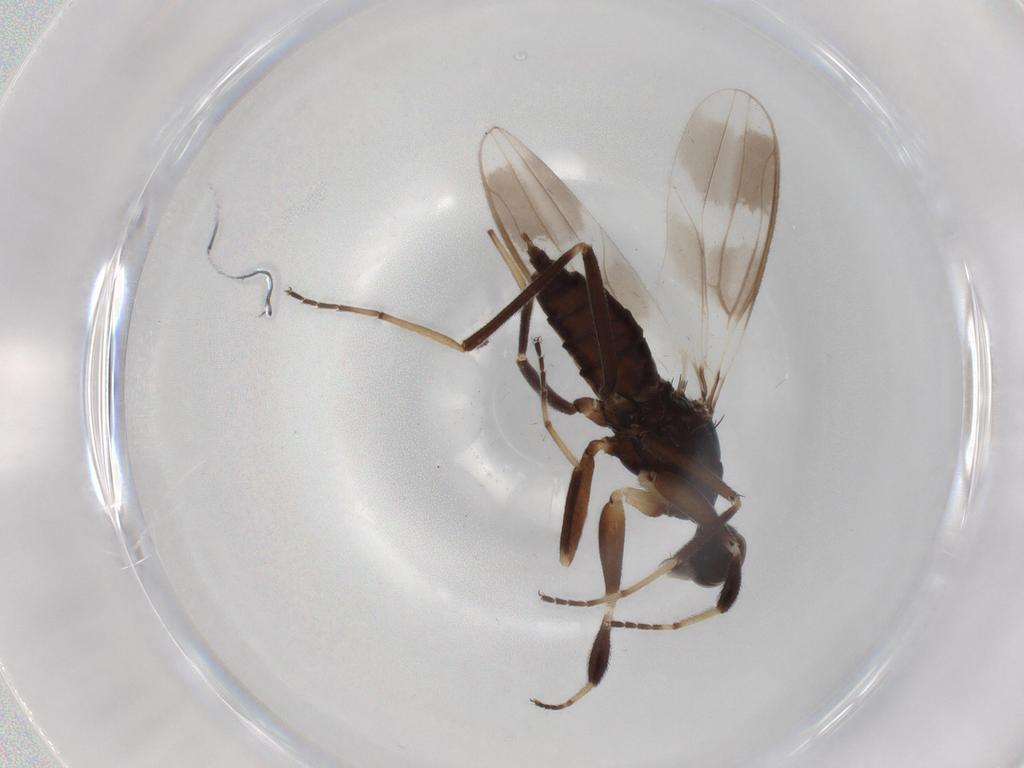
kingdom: Animalia
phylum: Arthropoda
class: Insecta
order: Diptera
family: Hybotidae
